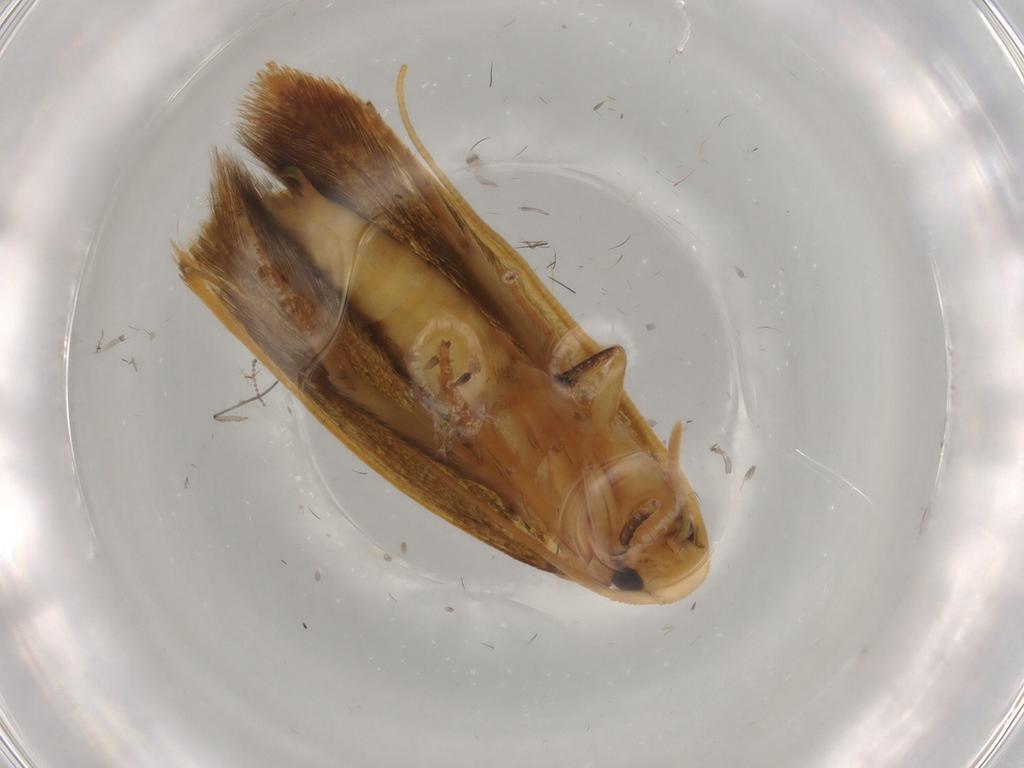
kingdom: Animalia
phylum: Arthropoda
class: Insecta
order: Lepidoptera
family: Tineidae
